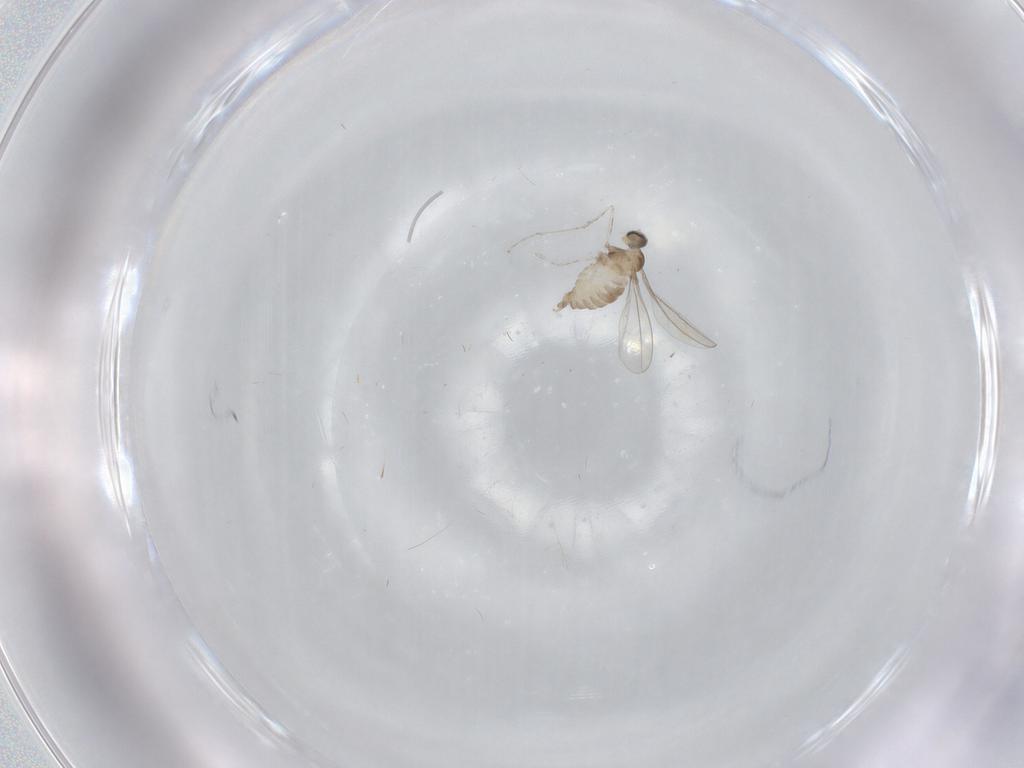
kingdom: Animalia
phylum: Arthropoda
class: Insecta
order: Diptera
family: Cecidomyiidae
